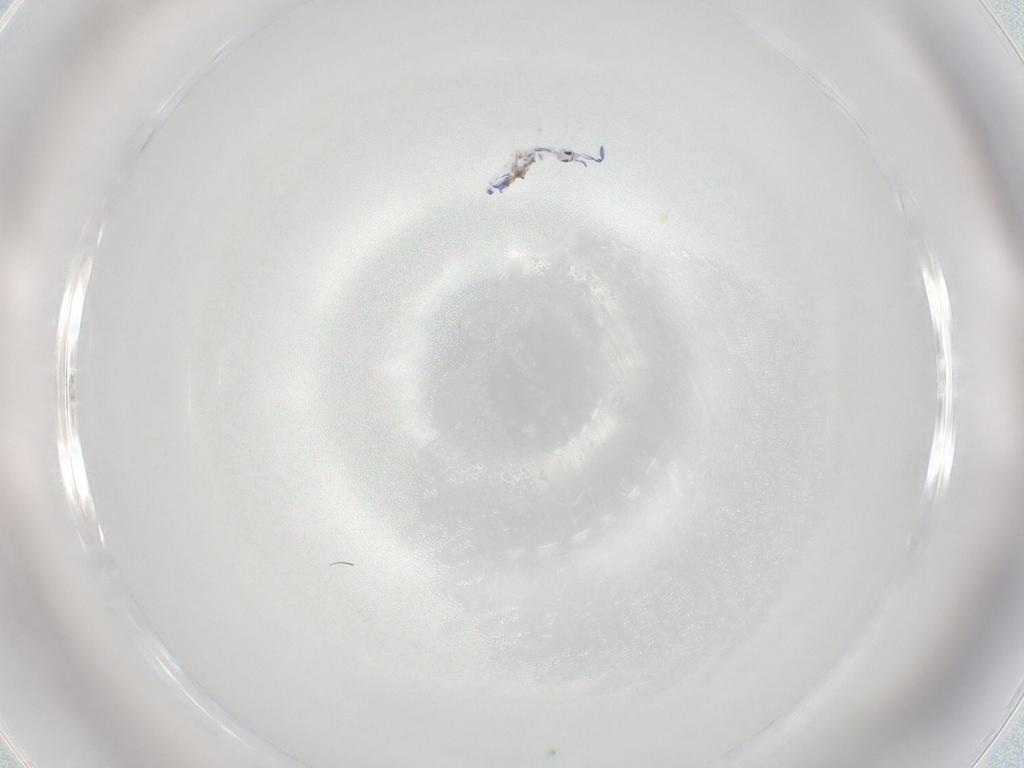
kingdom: Animalia
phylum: Arthropoda
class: Collembola
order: Entomobryomorpha
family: Entomobryidae
